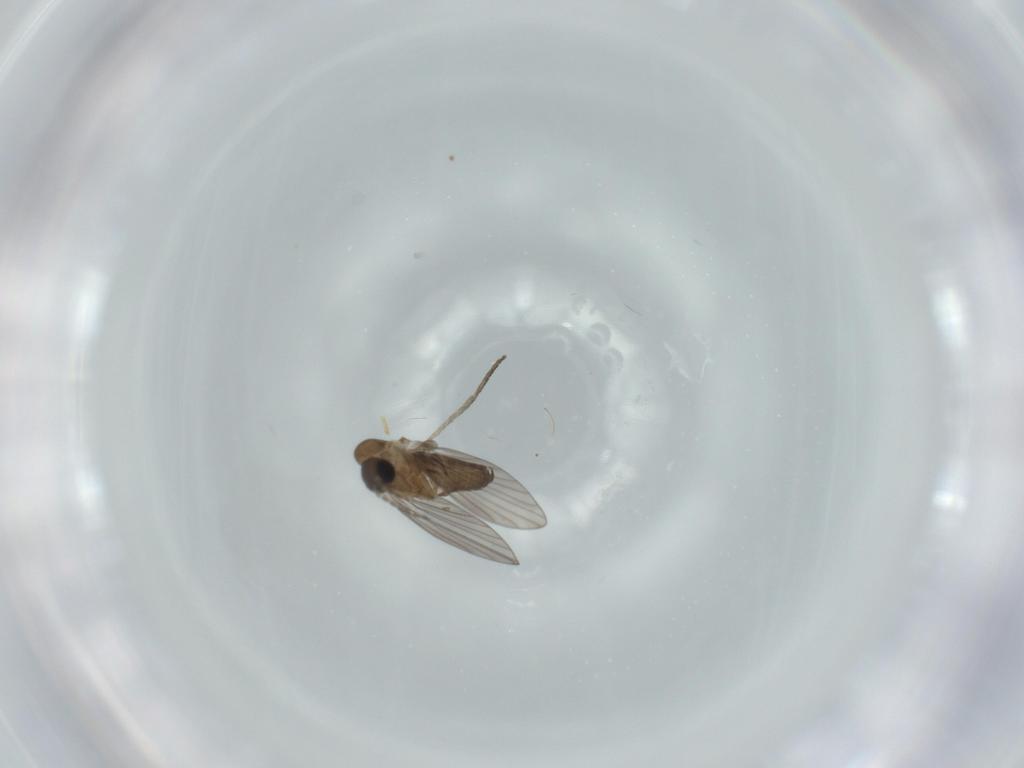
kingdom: Animalia
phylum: Arthropoda
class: Insecta
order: Diptera
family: Psychodidae
